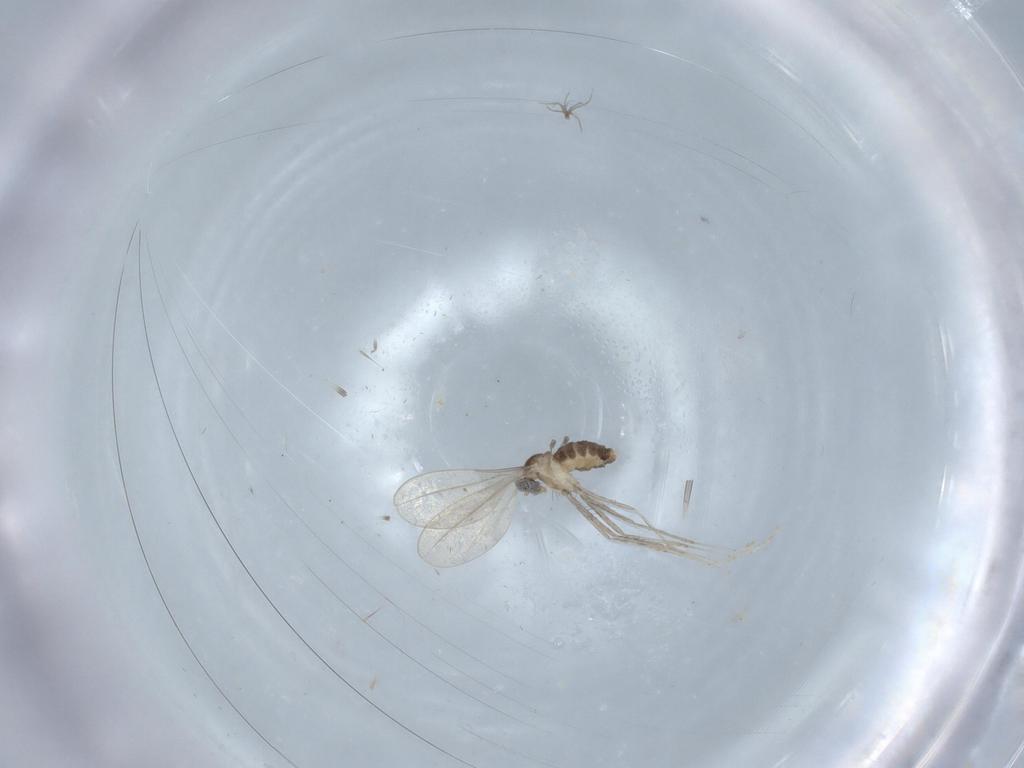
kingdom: Animalia
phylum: Arthropoda
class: Insecta
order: Diptera
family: Cecidomyiidae
